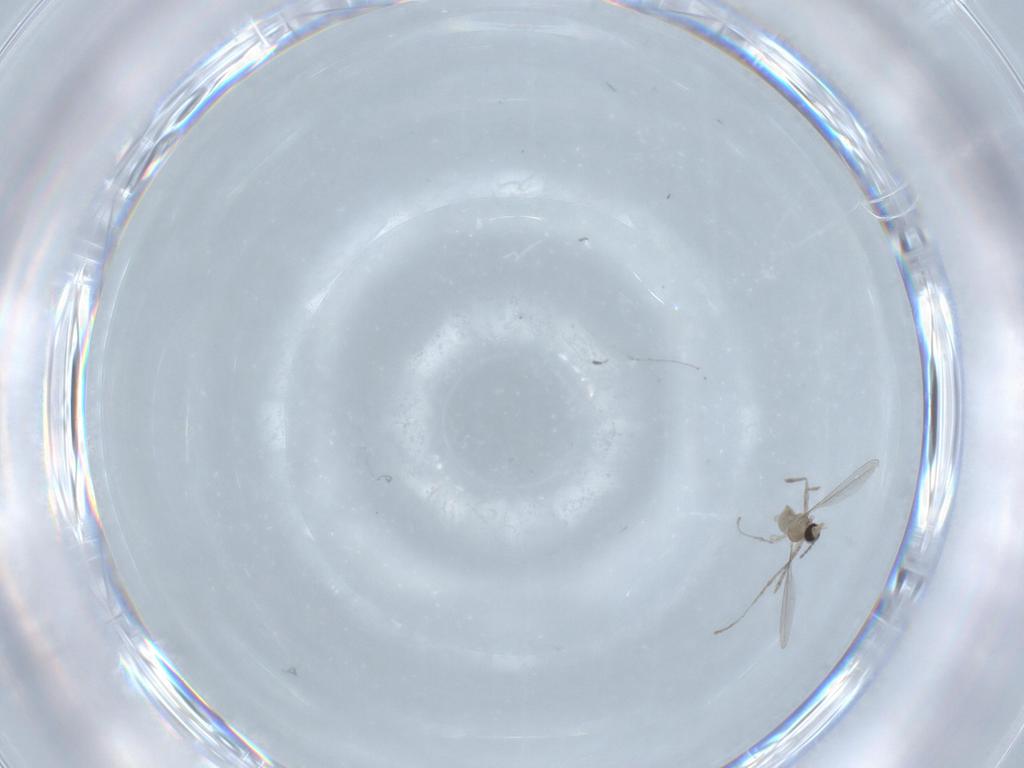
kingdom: Animalia
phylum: Arthropoda
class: Insecta
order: Diptera
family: Cecidomyiidae
